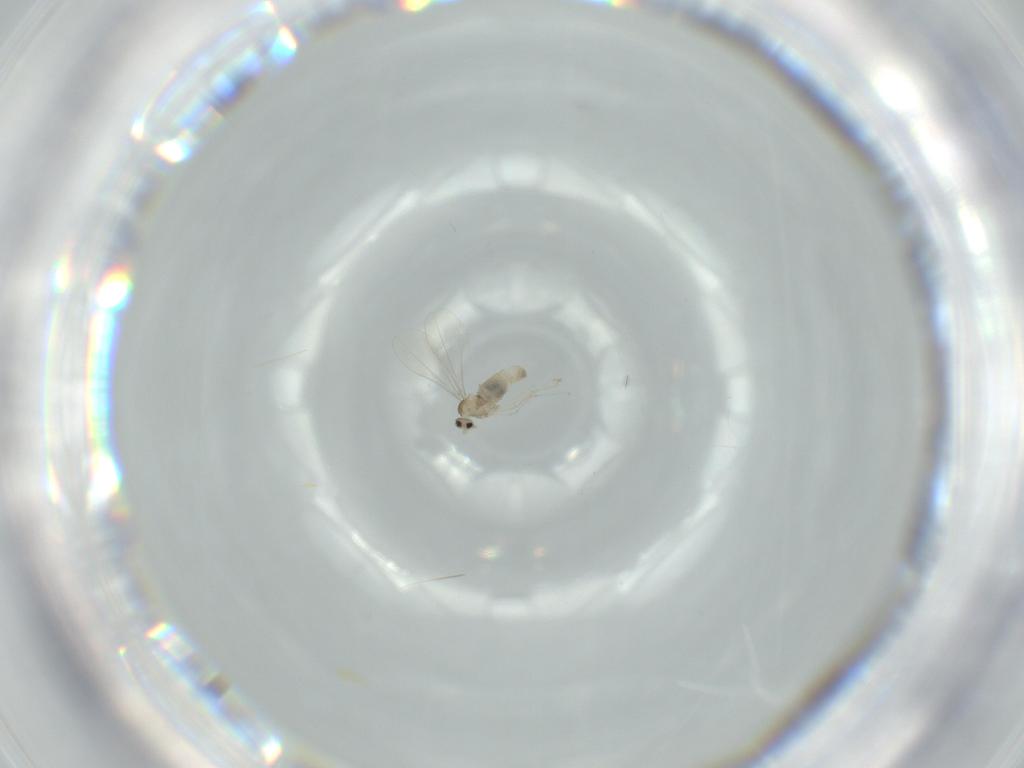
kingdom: Animalia
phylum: Arthropoda
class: Insecta
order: Diptera
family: Cecidomyiidae
